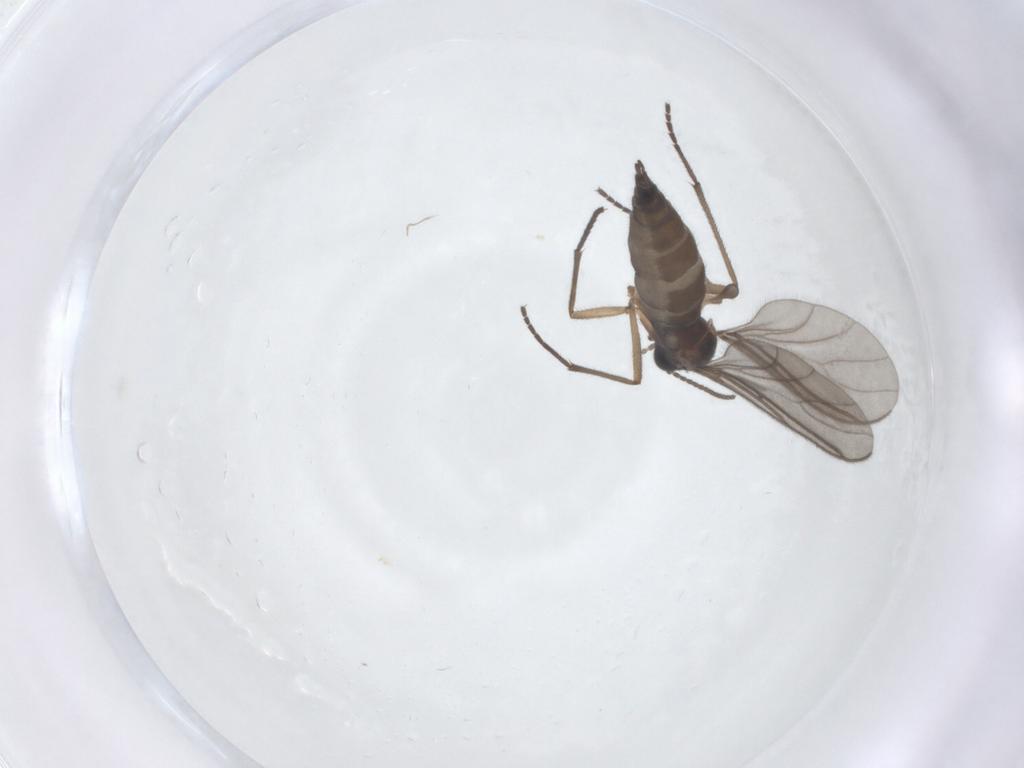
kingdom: Animalia
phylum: Arthropoda
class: Insecta
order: Diptera
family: Sciaridae
